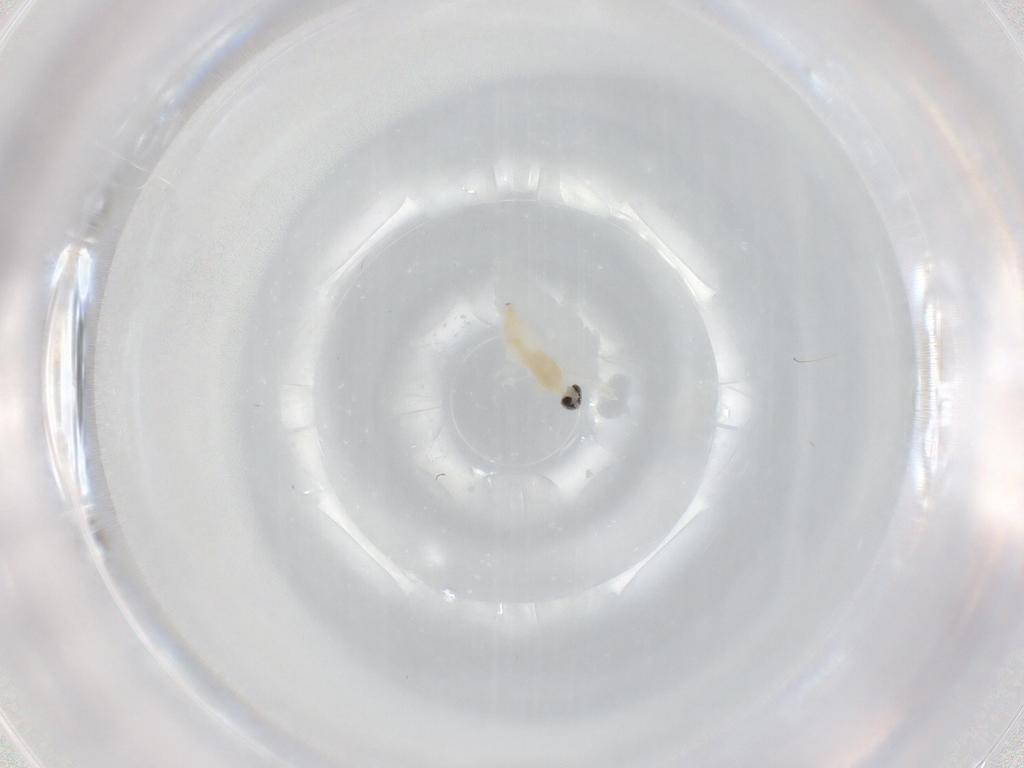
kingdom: Animalia
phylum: Arthropoda
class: Insecta
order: Diptera
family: Cecidomyiidae
